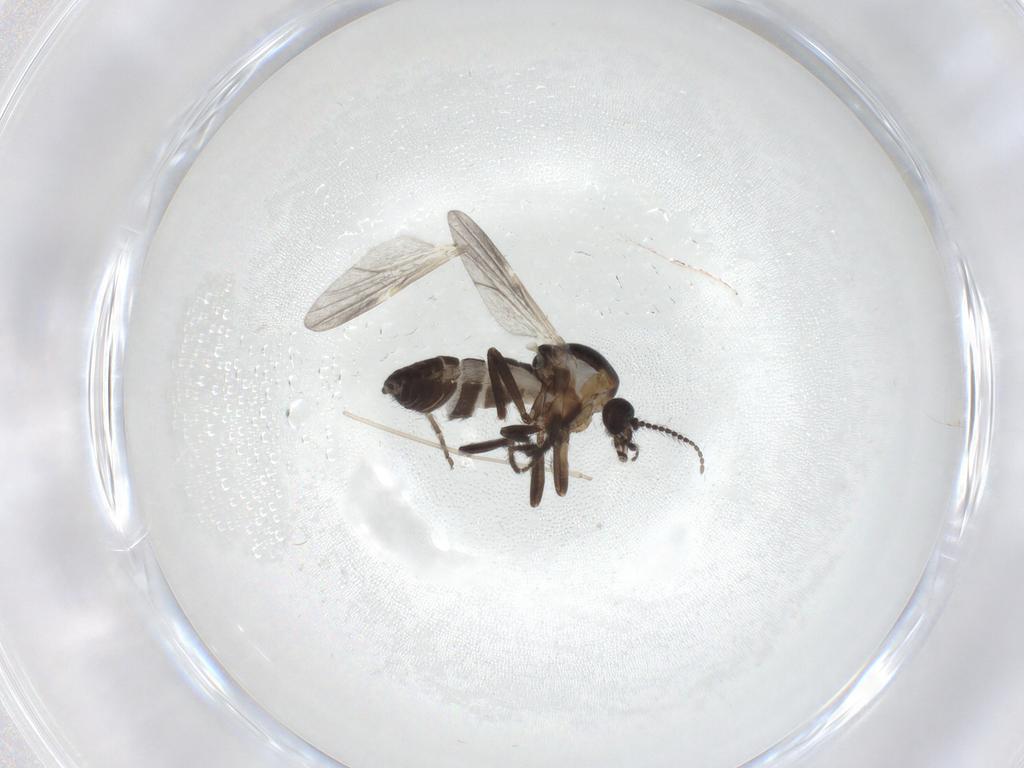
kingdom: Animalia
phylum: Arthropoda
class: Insecta
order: Diptera
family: Ceratopogonidae
